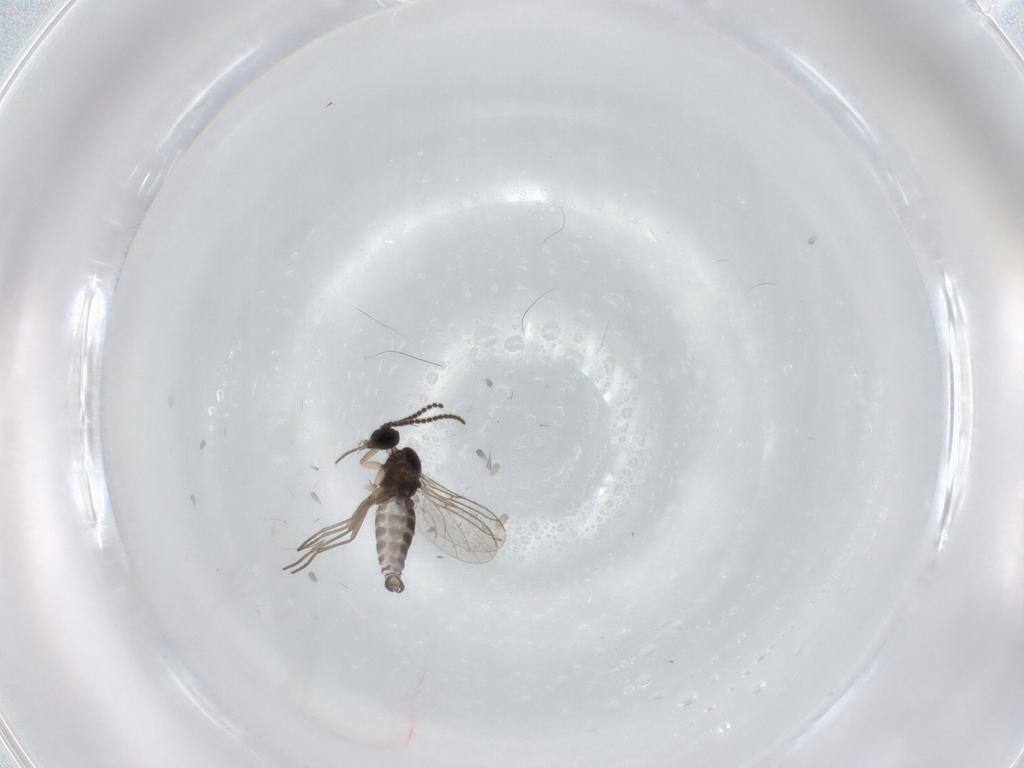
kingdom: Animalia
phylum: Arthropoda
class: Insecta
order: Diptera
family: Sciaridae
